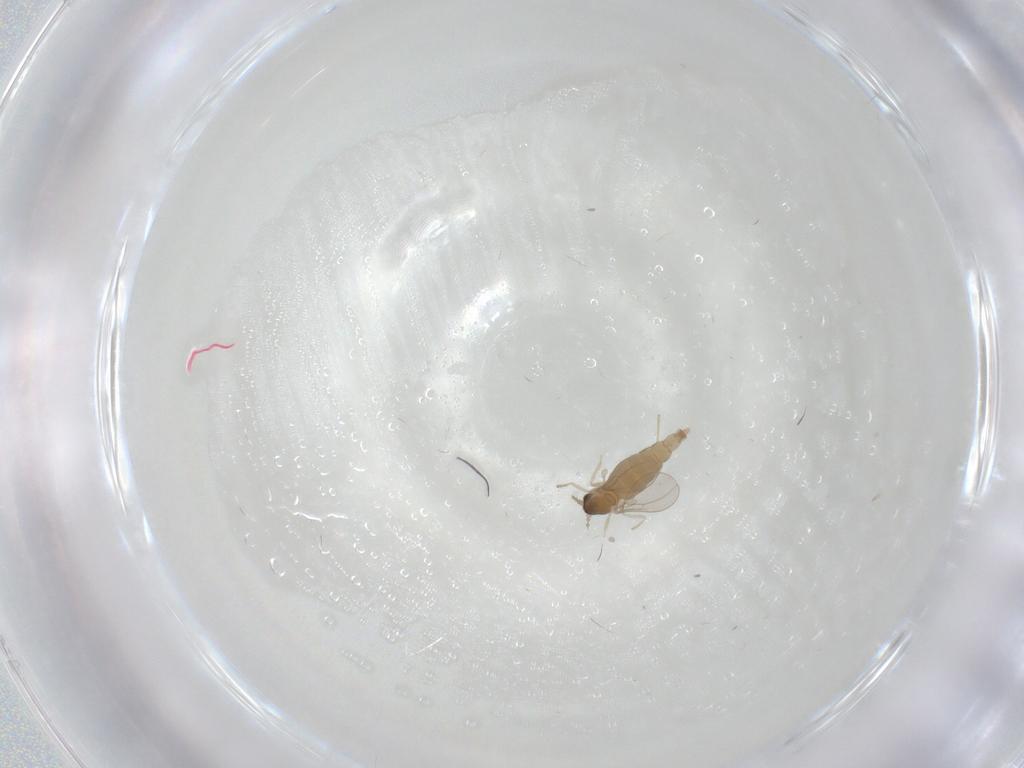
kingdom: Animalia
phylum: Arthropoda
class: Insecta
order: Diptera
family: Cecidomyiidae
